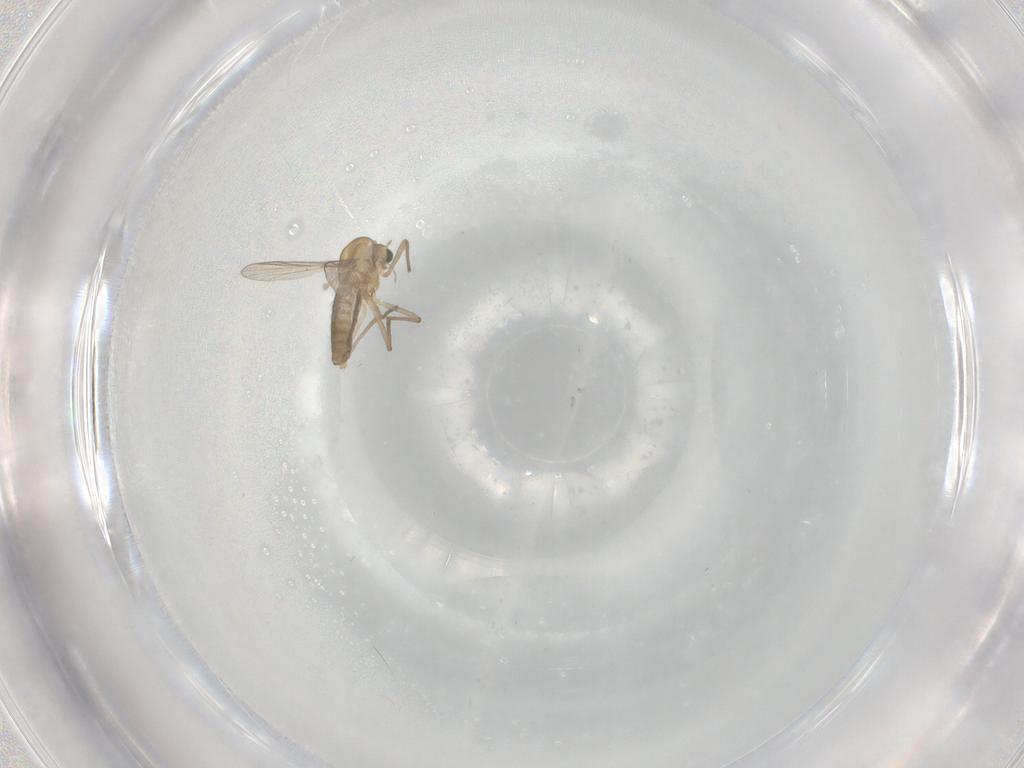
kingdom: Animalia
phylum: Arthropoda
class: Insecta
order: Diptera
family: Chironomidae
